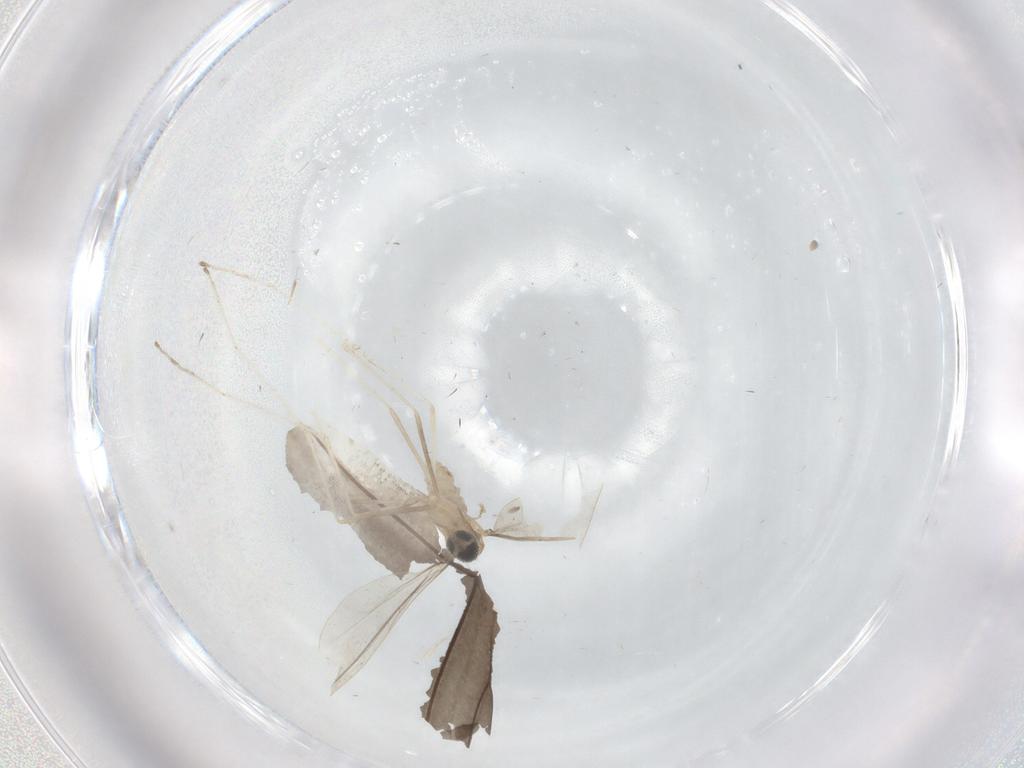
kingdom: Animalia
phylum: Arthropoda
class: Insecta
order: Diptera
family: Cecidomyiidae
